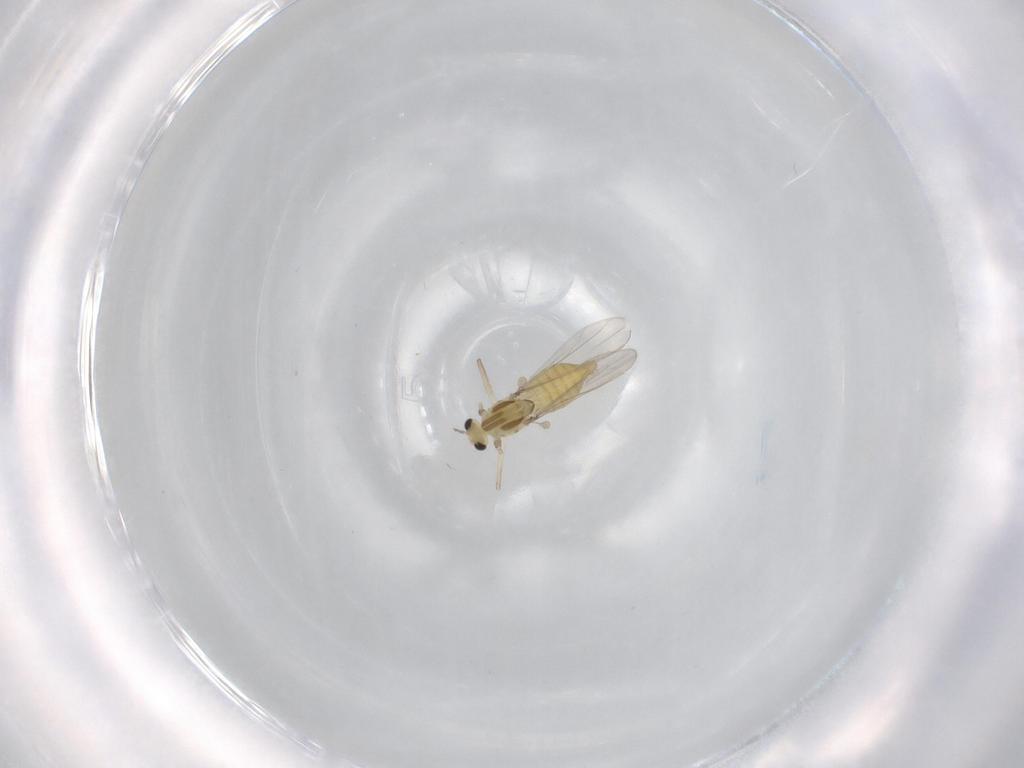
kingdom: Animalia
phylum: Arthropoda
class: Insecta
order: Diptera
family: Chironomidae
